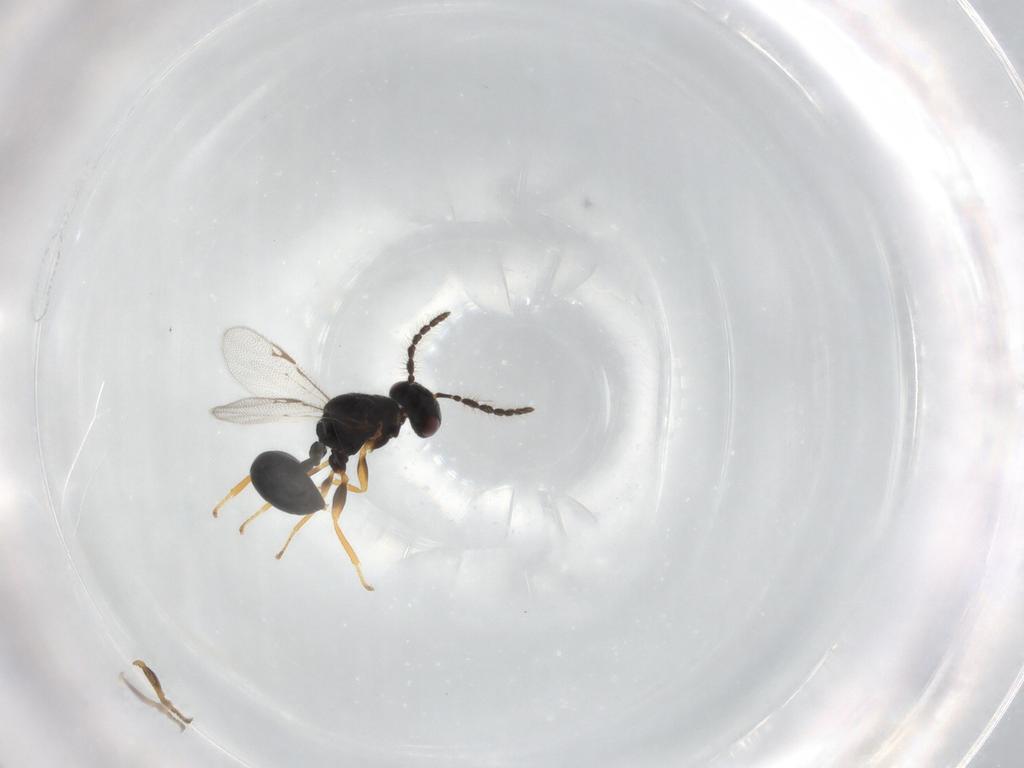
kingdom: Animalia
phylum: Arthropoda
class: Insecta
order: Hymenoptera
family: Eurytomidae
